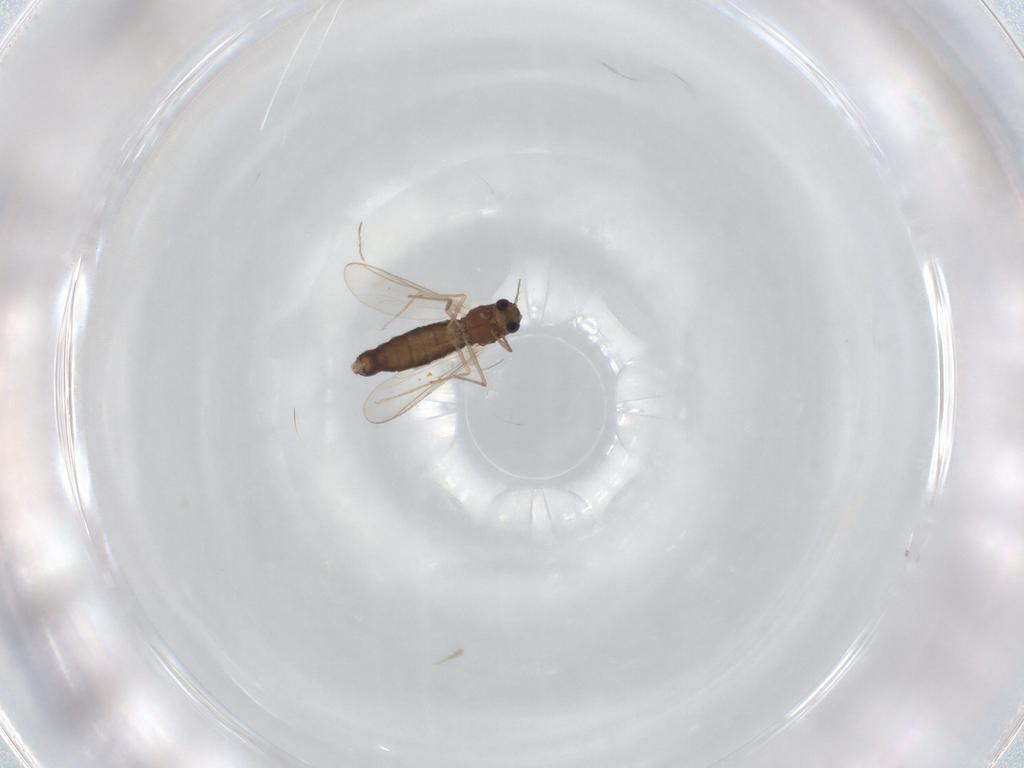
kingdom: Animalia
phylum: Arthropoda
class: Insecta
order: Diptera
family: Chironomidae
